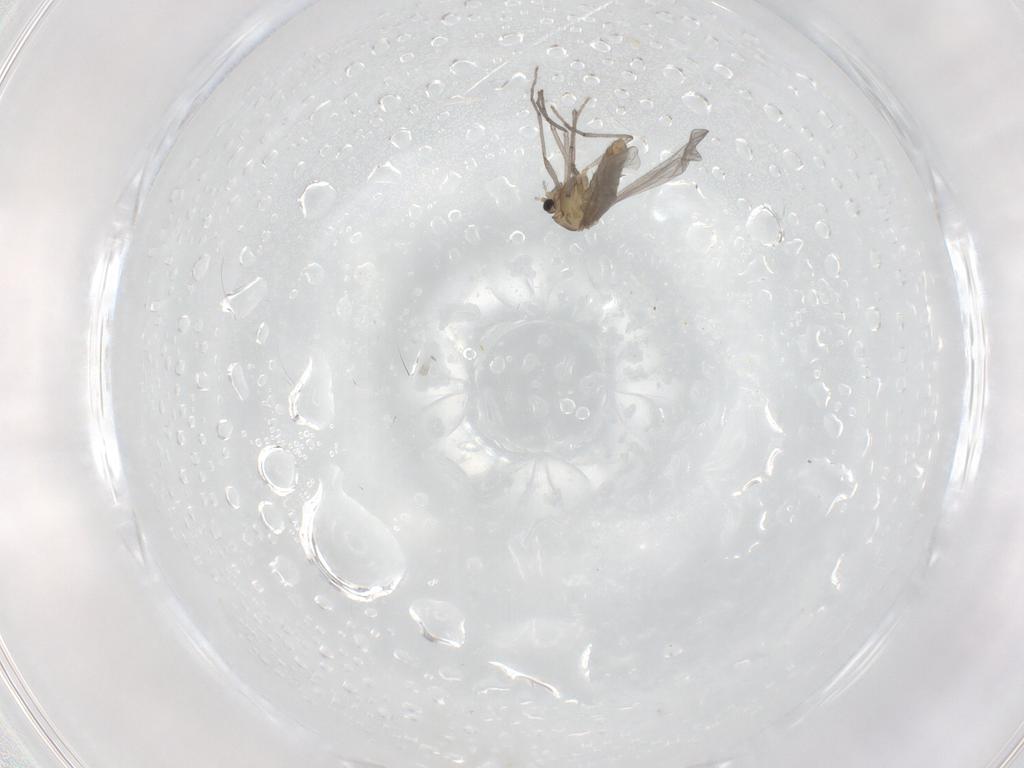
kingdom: Animalia
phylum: Arthropoda
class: Insecta
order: Diptera
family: Chironomidae
